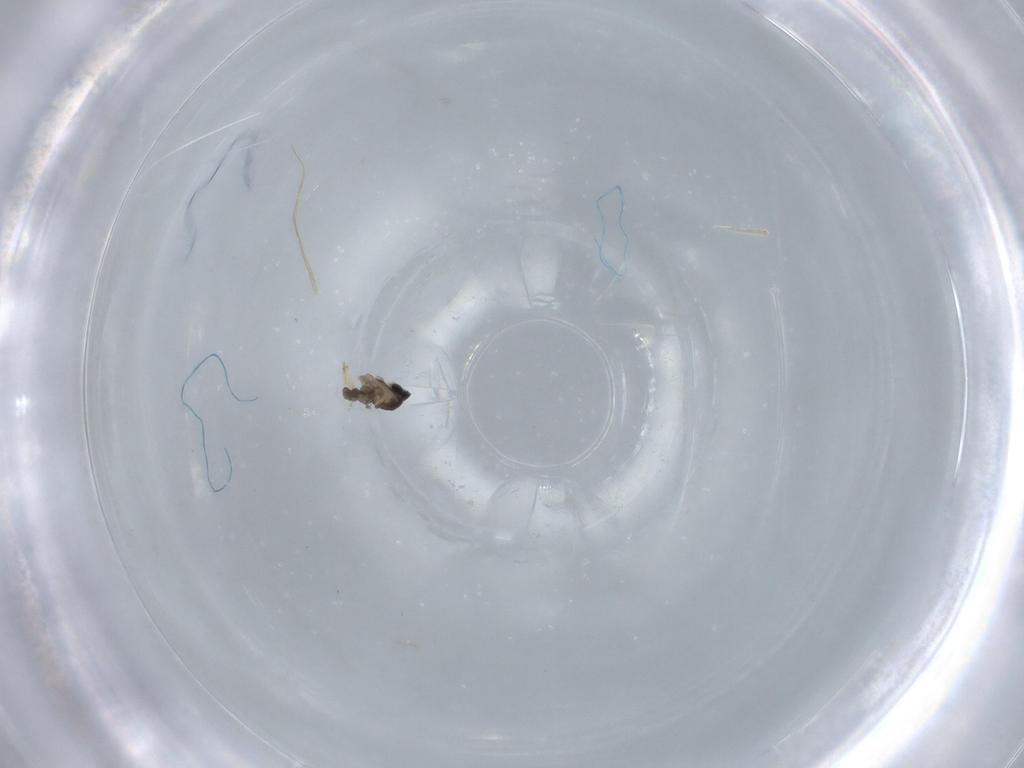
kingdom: Animalia
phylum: Arthropoda
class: Insecta
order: Diptera
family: Cecidomyiidae
